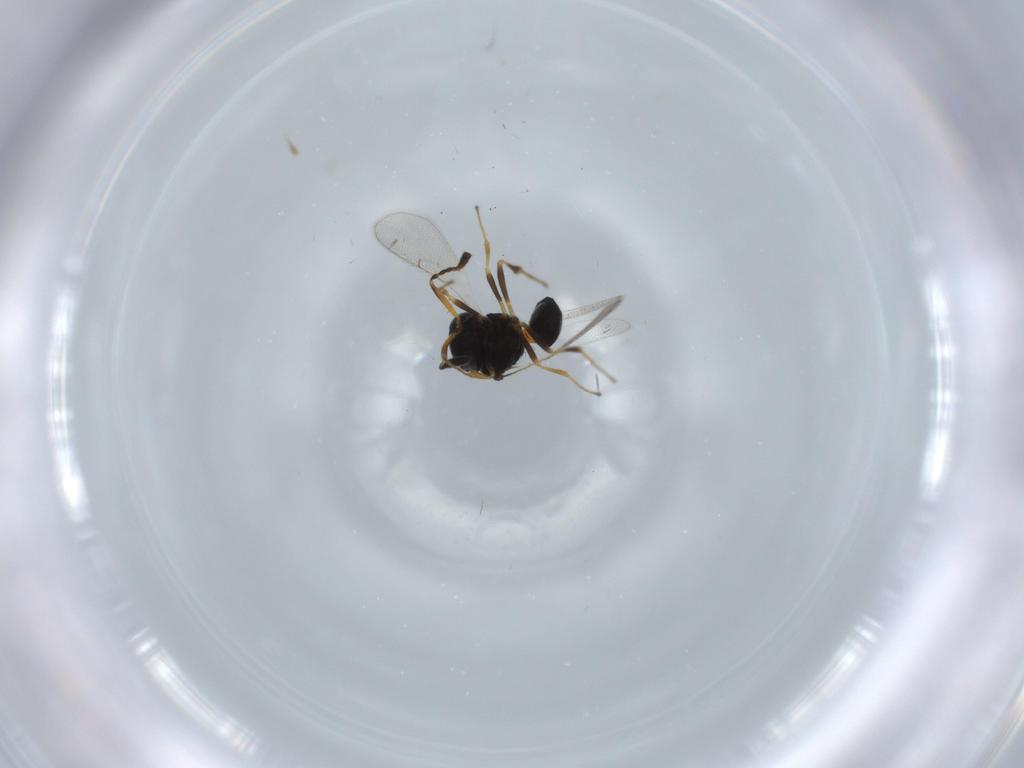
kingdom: Animalia
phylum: Arthropoda
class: Insecta
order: Hymenoptera
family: Scelionidae
